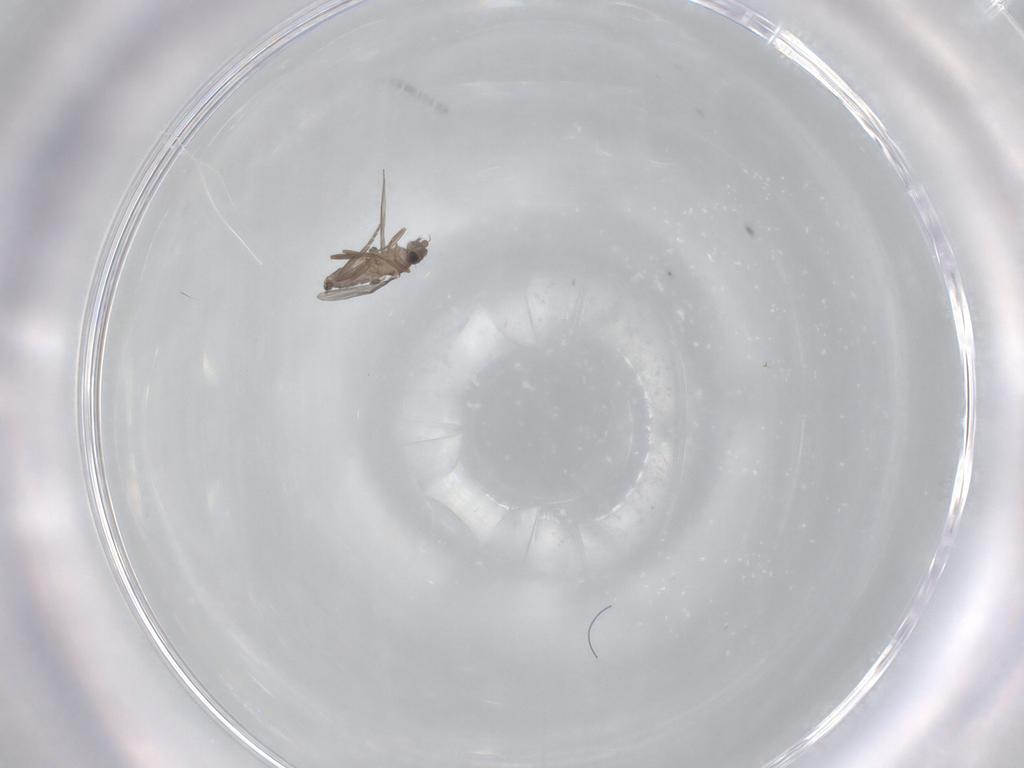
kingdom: Animalia
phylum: Arthropoda
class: Insecta
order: Diptera
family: Phoridae
